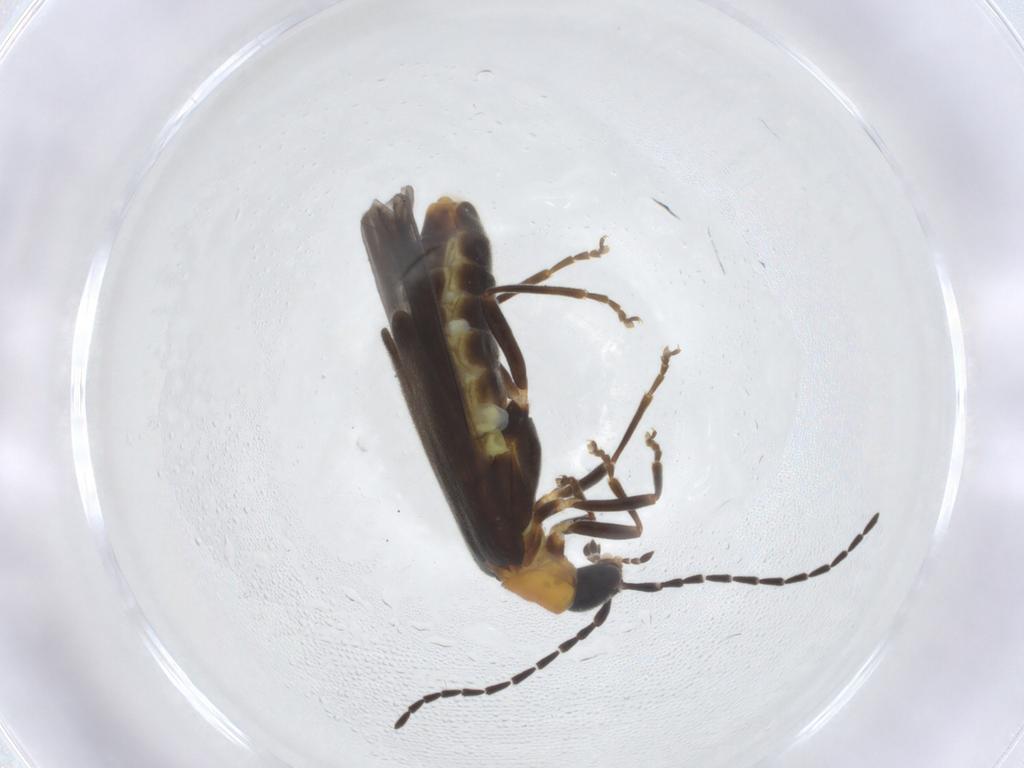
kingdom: Animalia
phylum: Arthropoda
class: Insecta
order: Coleoptera
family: Cantharidae
